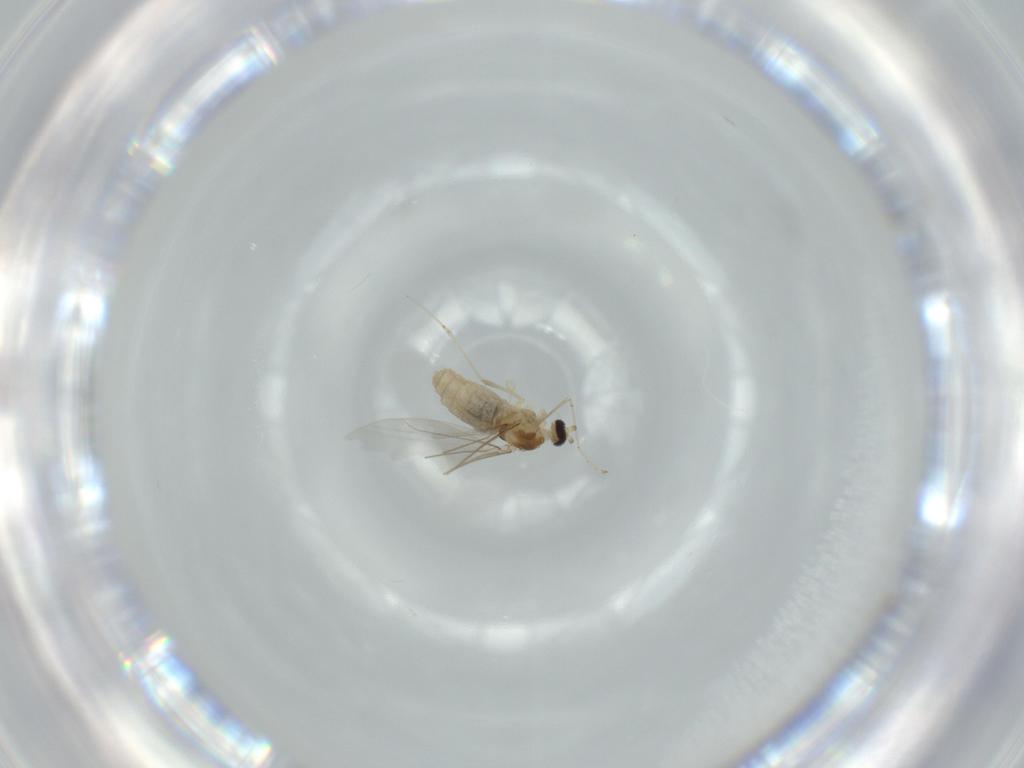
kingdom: Animalia
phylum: Arthropoda
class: Insecta
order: Diptera
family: Cecidomyiidae
